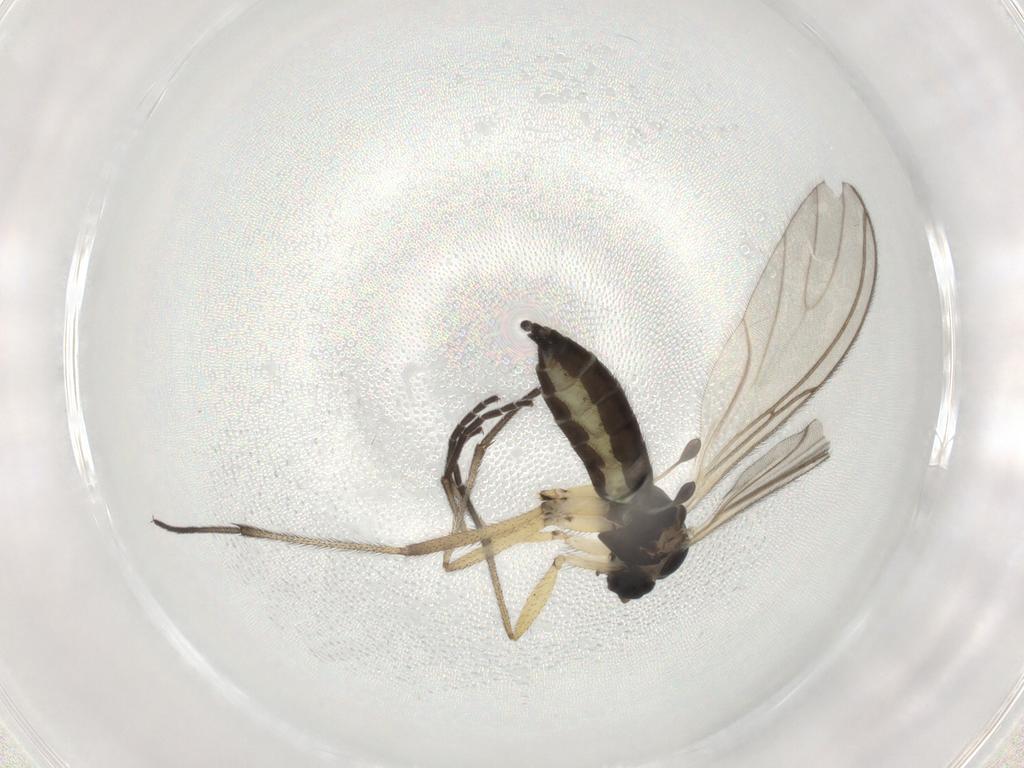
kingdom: Animalia
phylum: Arthropoda
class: Insecta
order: Diptera
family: Sciaridae
